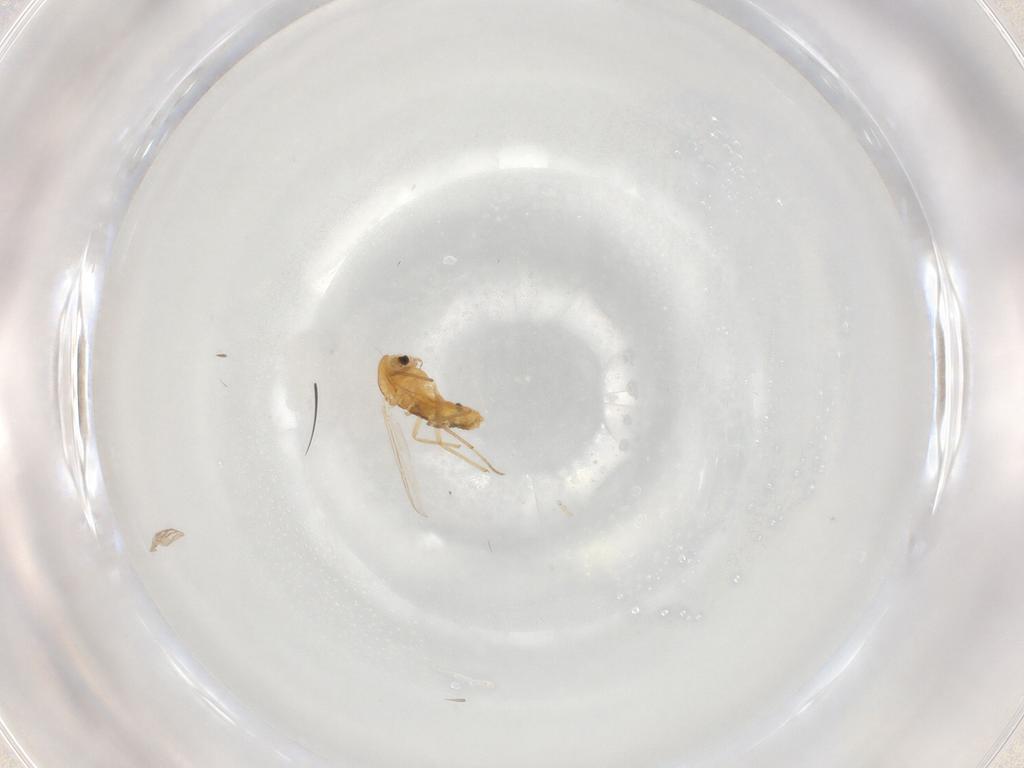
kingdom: Animalia
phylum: Arthropoda
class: Insecta
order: Diptera
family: Chironomidae
